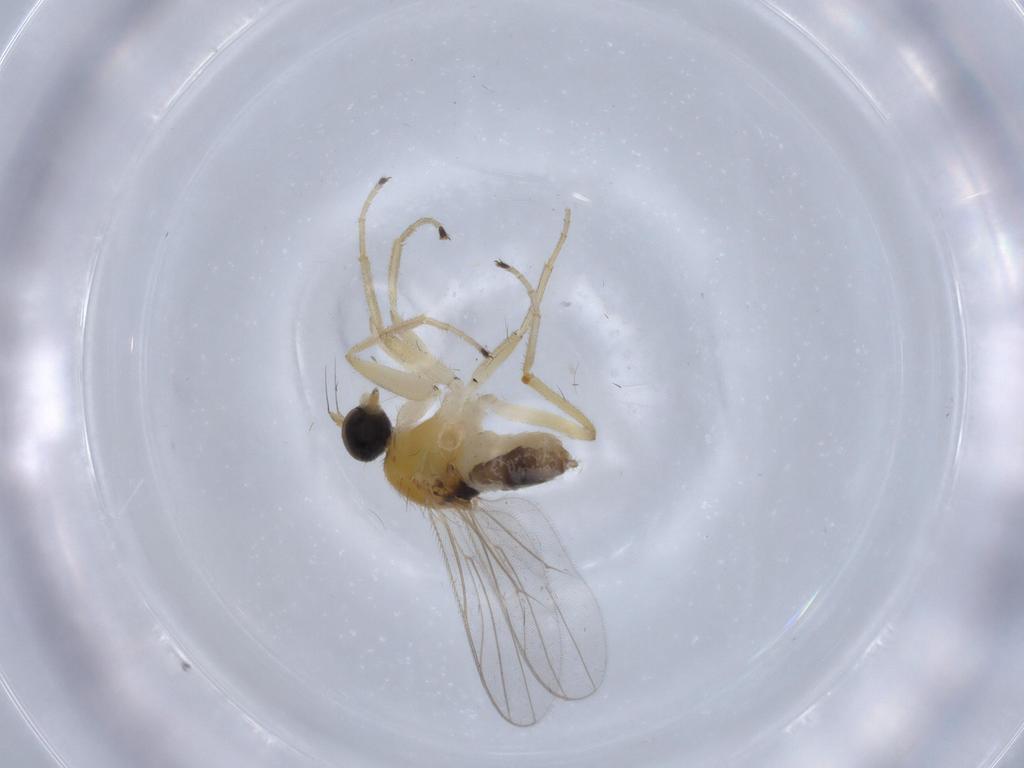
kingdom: Animalia
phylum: Arthropoda
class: Insecta
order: Diptera
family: Hybotidae
